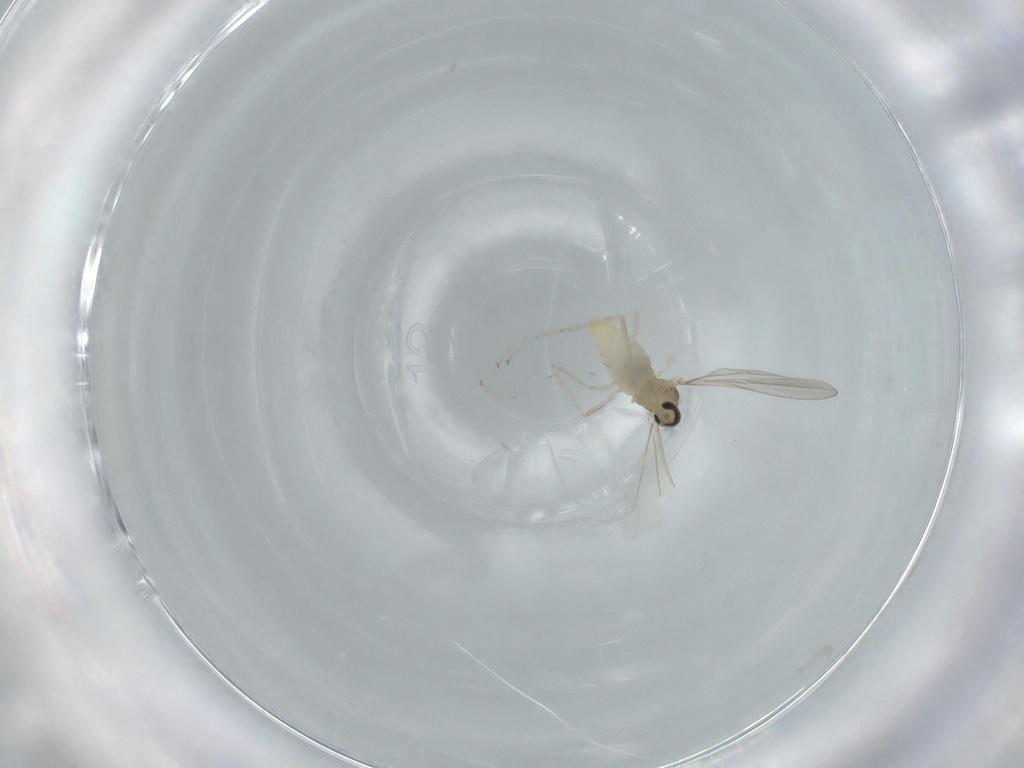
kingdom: Animalia
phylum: Arthropoda
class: Insecta
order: Diptera
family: Cecidomyiidae
